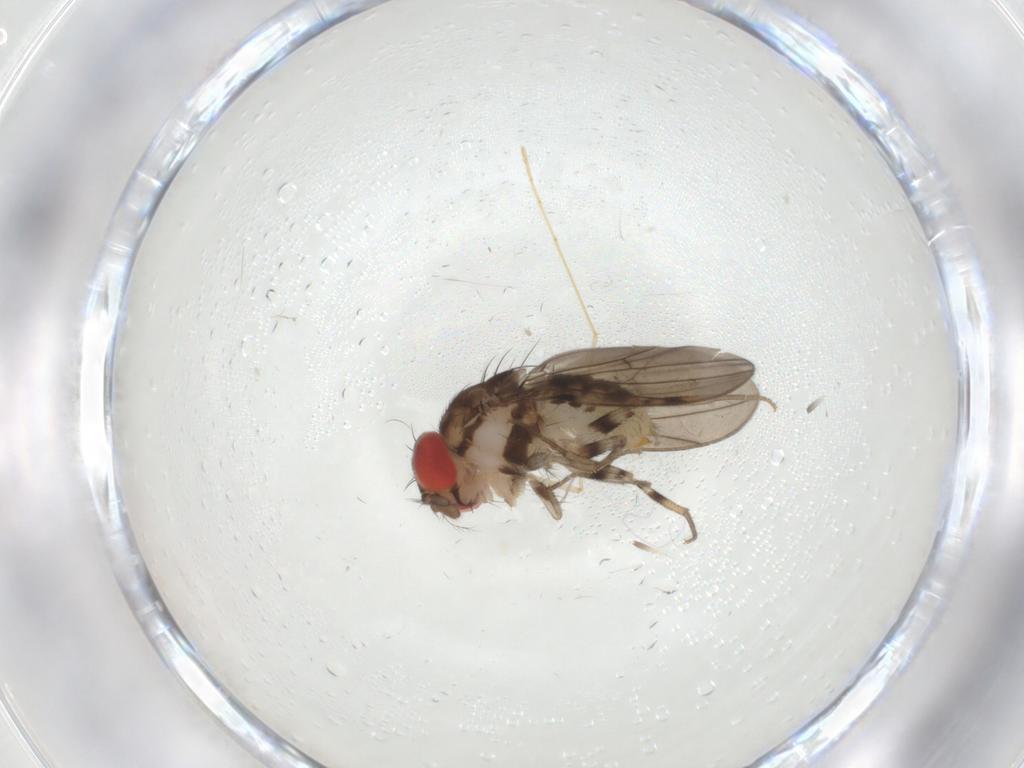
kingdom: Animalia
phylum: Arthropoda
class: Insecta
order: Diptera
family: Drosophilidae
